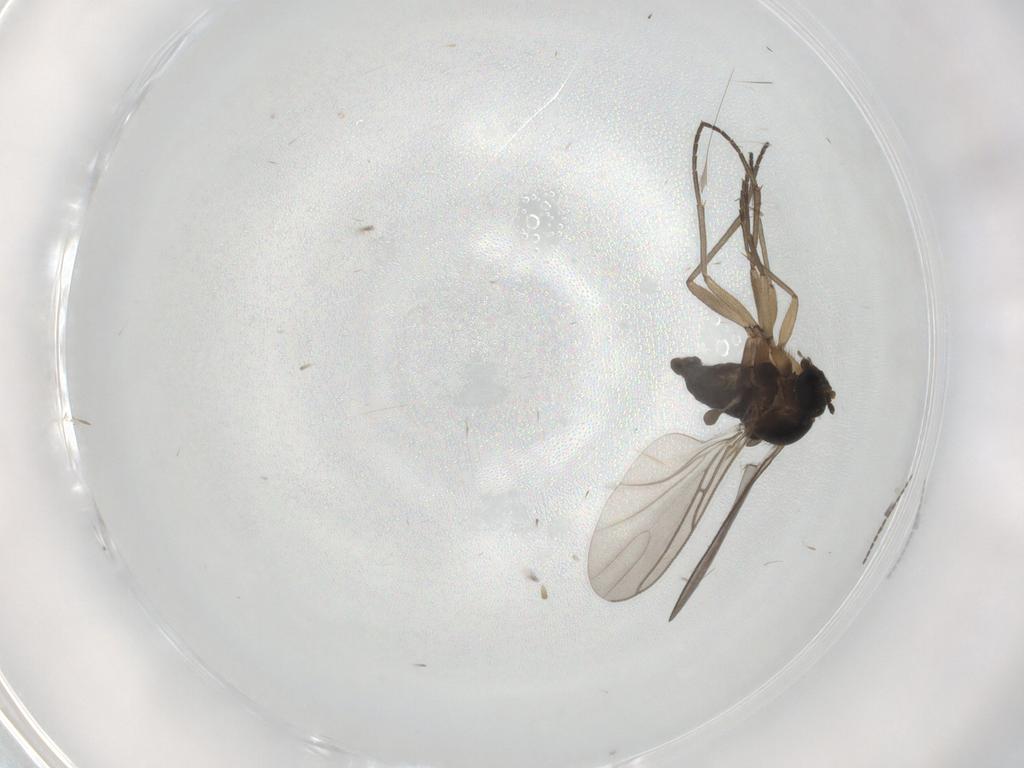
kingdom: Animalia
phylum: Arthropoda
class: Insecta
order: Diptera
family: Sciaridae
